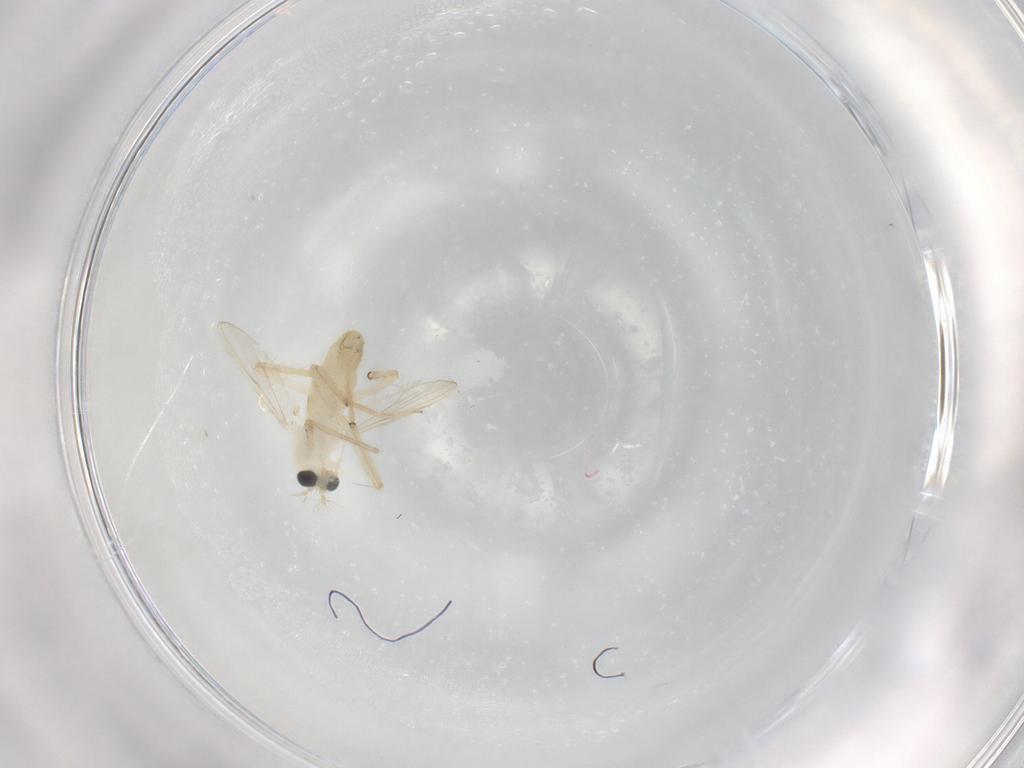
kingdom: Animalia
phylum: Arthropoda
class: Insecta
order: Diptera
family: Chironomidae
